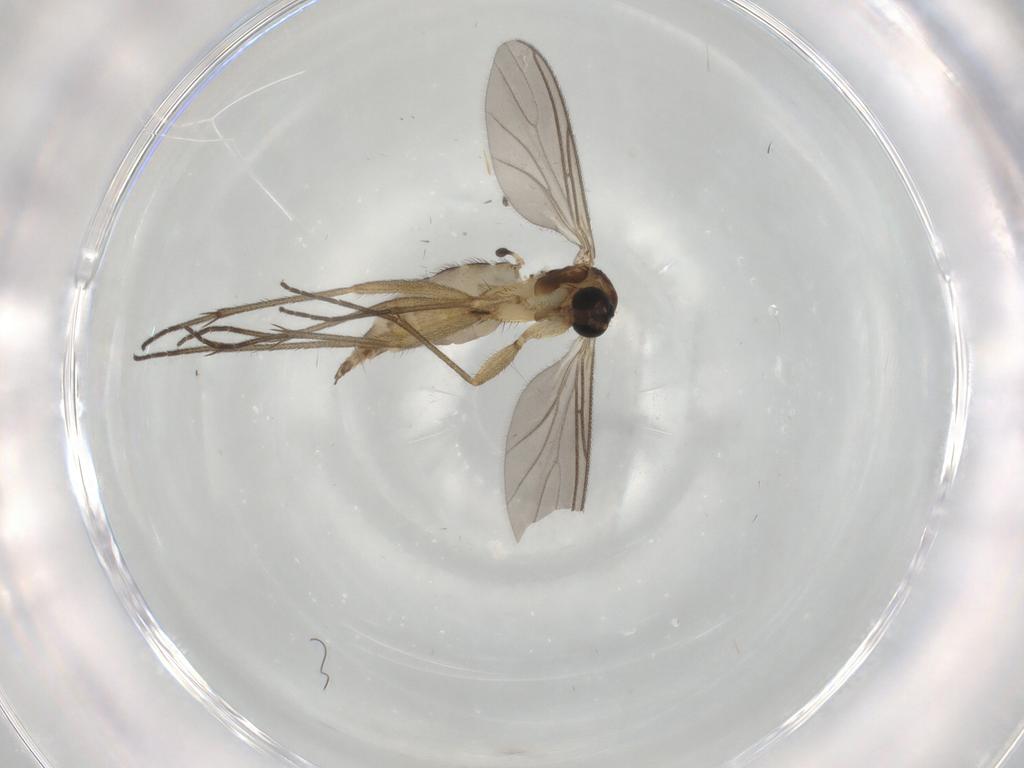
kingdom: Animalia
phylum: Arthropoda
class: Insecta
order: Diptera
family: Sciaridae
